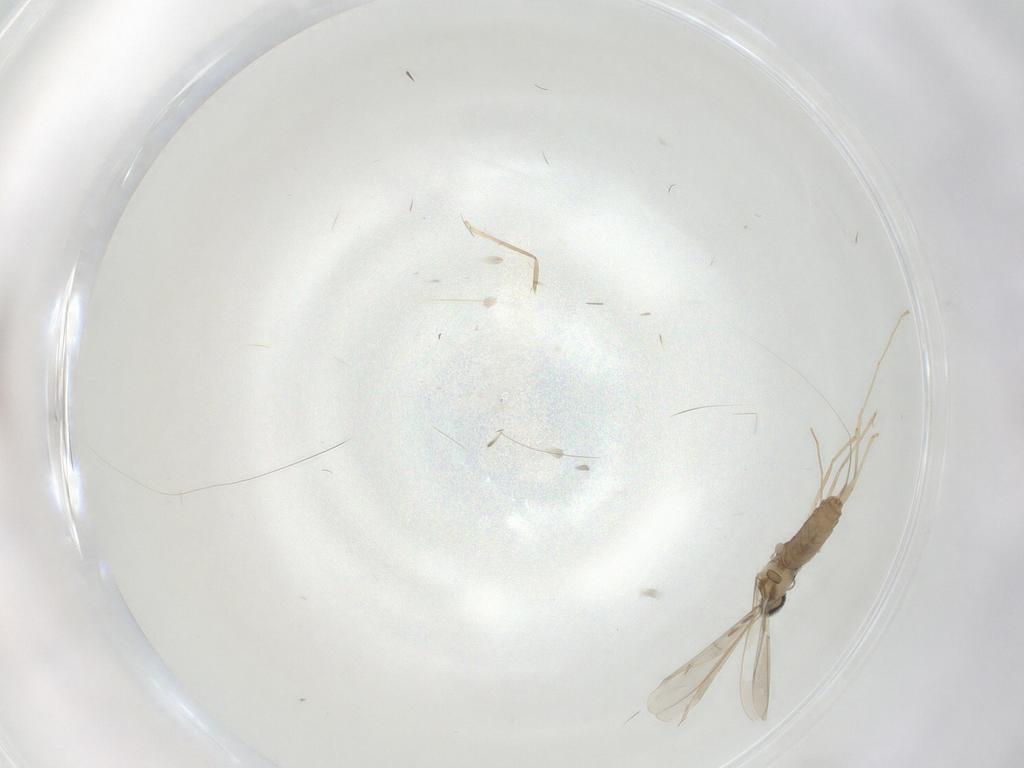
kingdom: Animalia
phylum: Arthropoda
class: Insecta
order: Diptera
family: Cecidomyiidae
